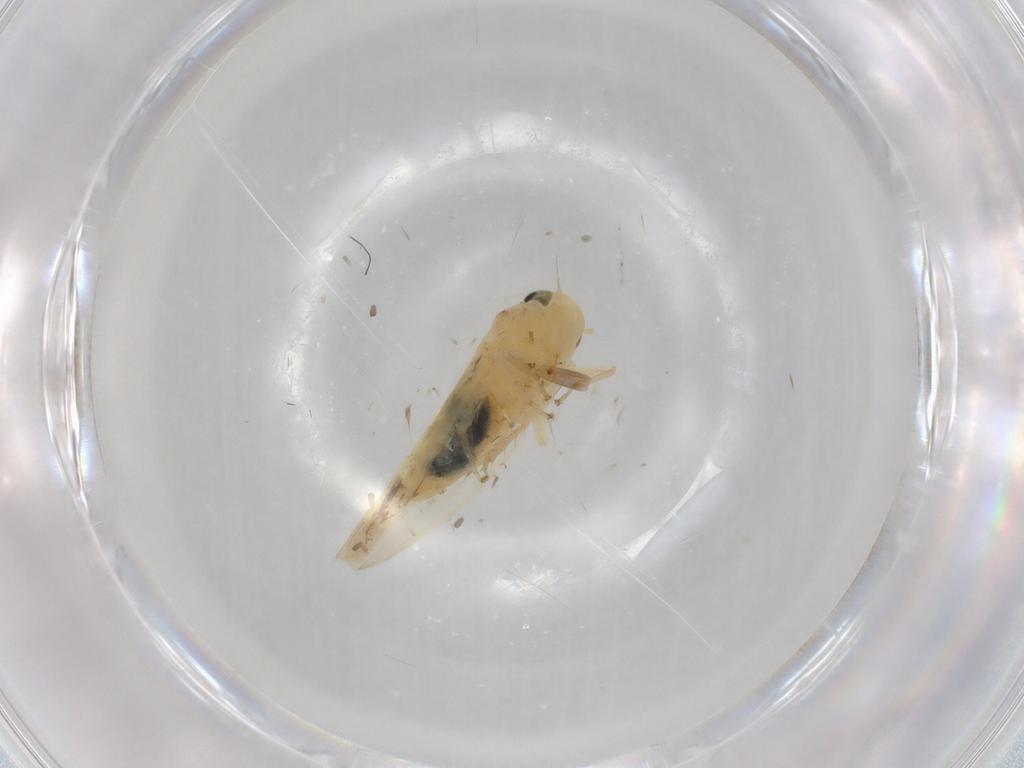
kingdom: Animalia
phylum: Arthropoda
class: Insecta
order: Hemiptera
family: Cicadellidae
